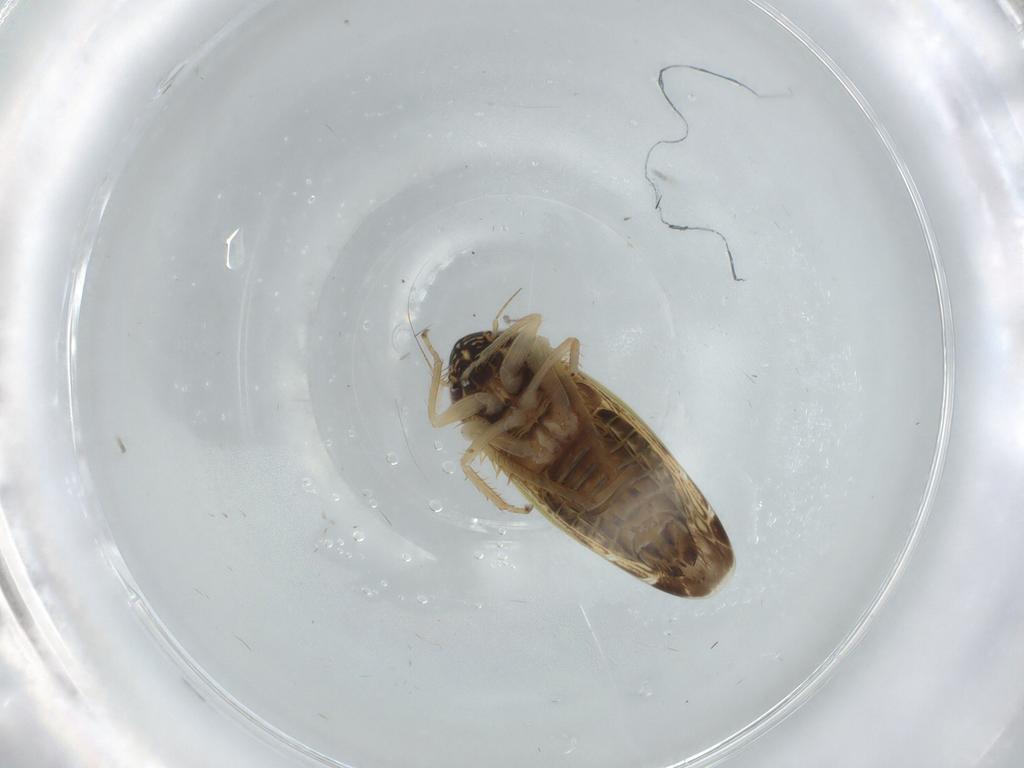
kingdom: Animalia
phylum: Arthropoda
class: Insecta
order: Hemiptera
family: Cicadellidae
